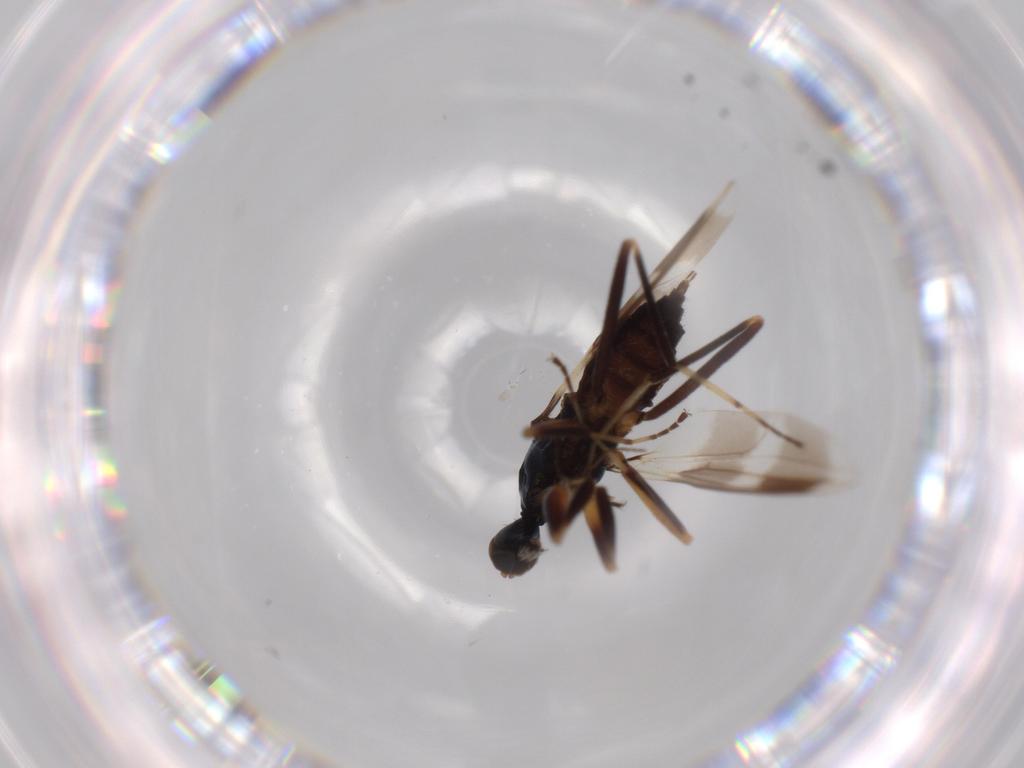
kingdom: Animalia
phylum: Arthropoda
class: Insecta
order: Diptera
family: Hybotidae
